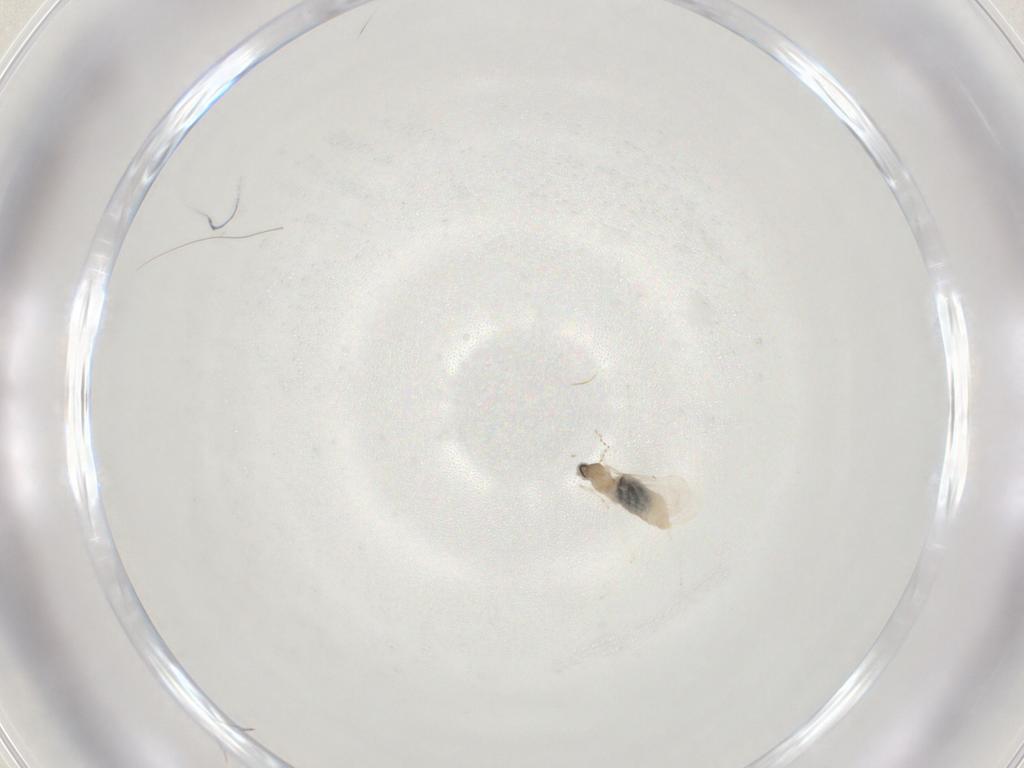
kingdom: Animalia
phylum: Arthropoda
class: Insecta
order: Diptera
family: Cecidomyiidae
